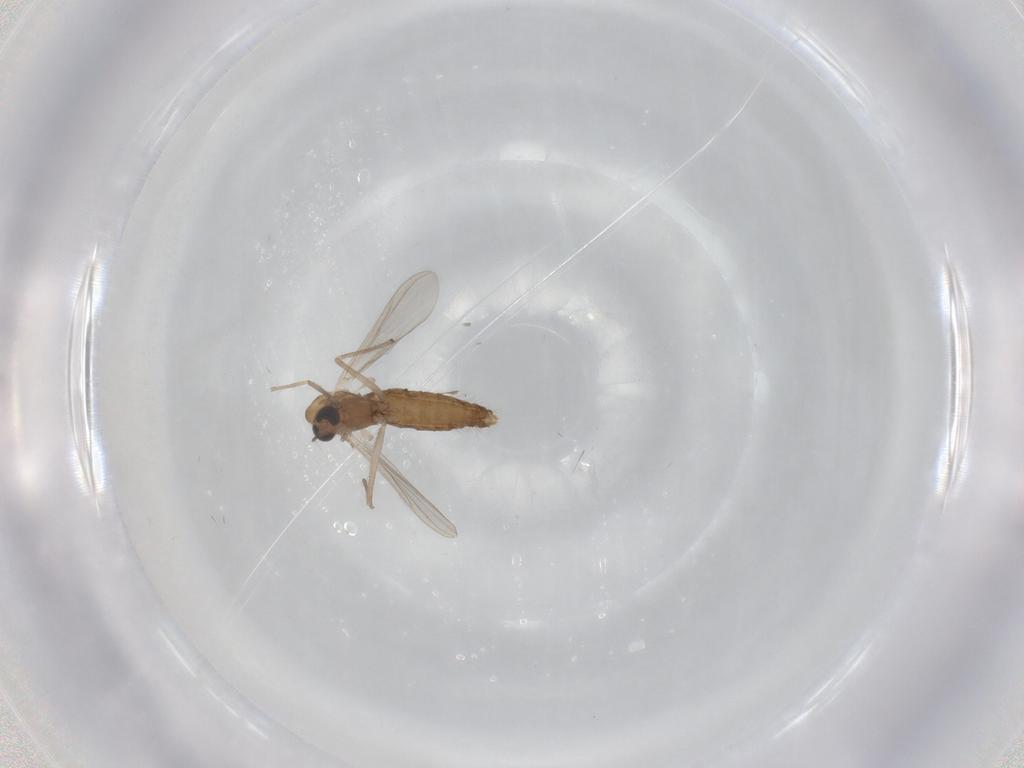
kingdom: Animalia
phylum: Arthropoda
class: Insecta
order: Diptera
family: Chironomidae
